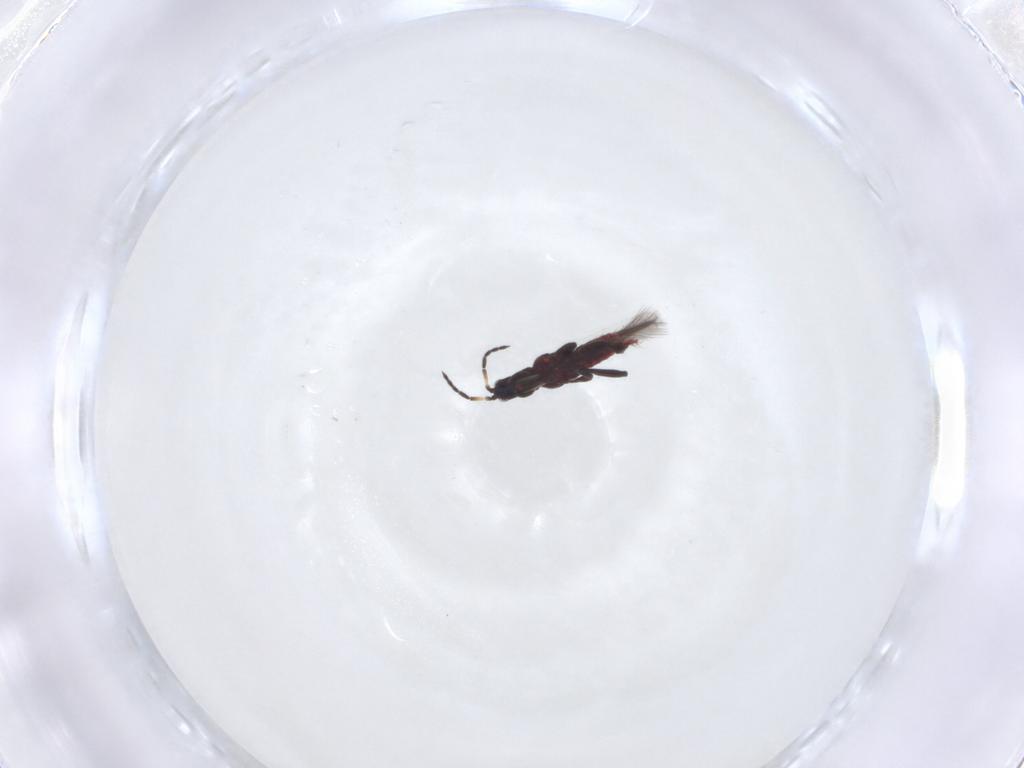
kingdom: Animalia
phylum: Arthropoda
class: Insecta
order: Thysanoptera
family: Aeolothripidae
